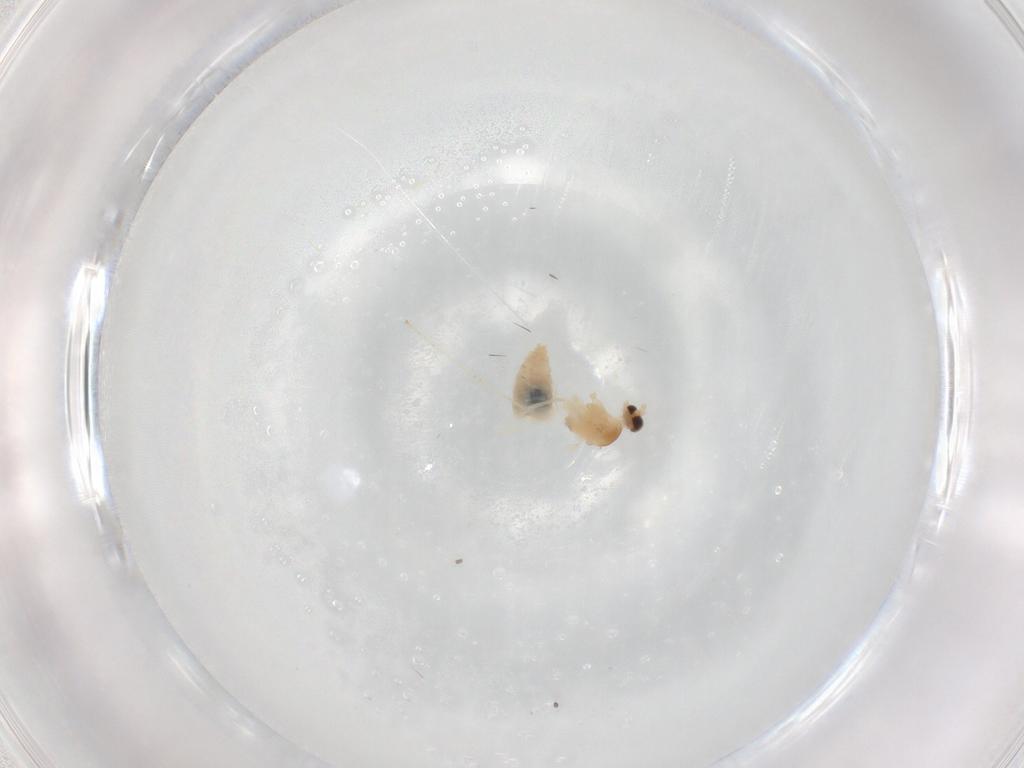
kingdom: Animalia
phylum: Arthropoda
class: Insecta
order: Diptera
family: Cecidomyiidae
